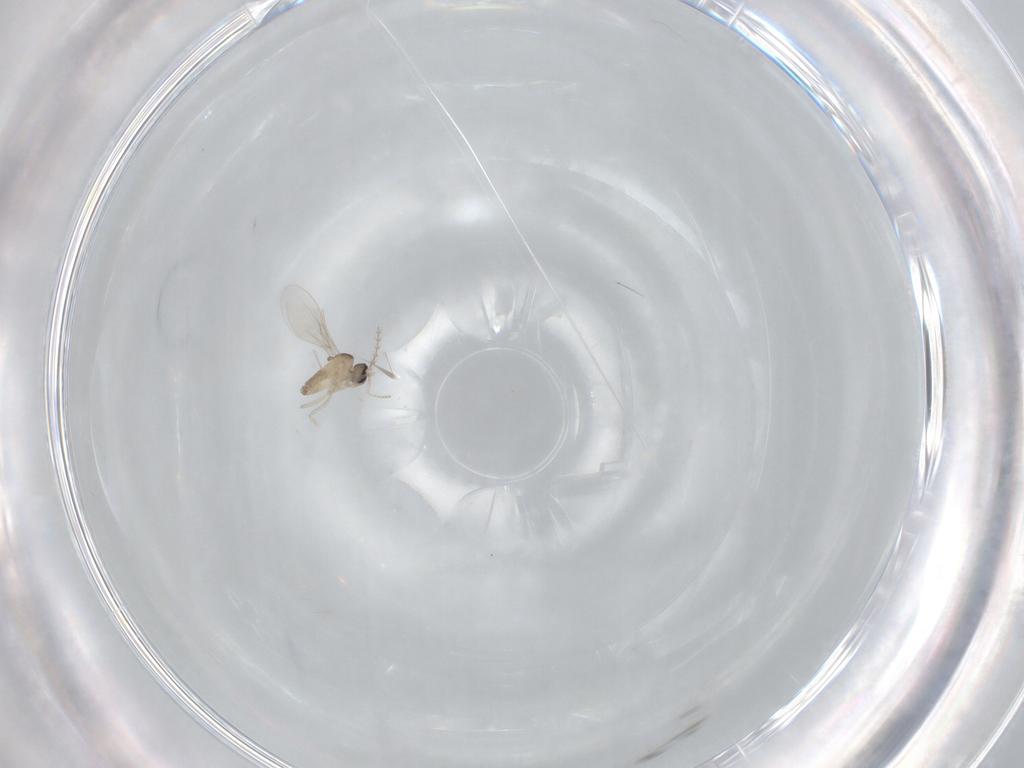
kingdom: Animalia
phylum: Arthropoda
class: Insecta
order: Diptera
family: Cecidomyiidae
